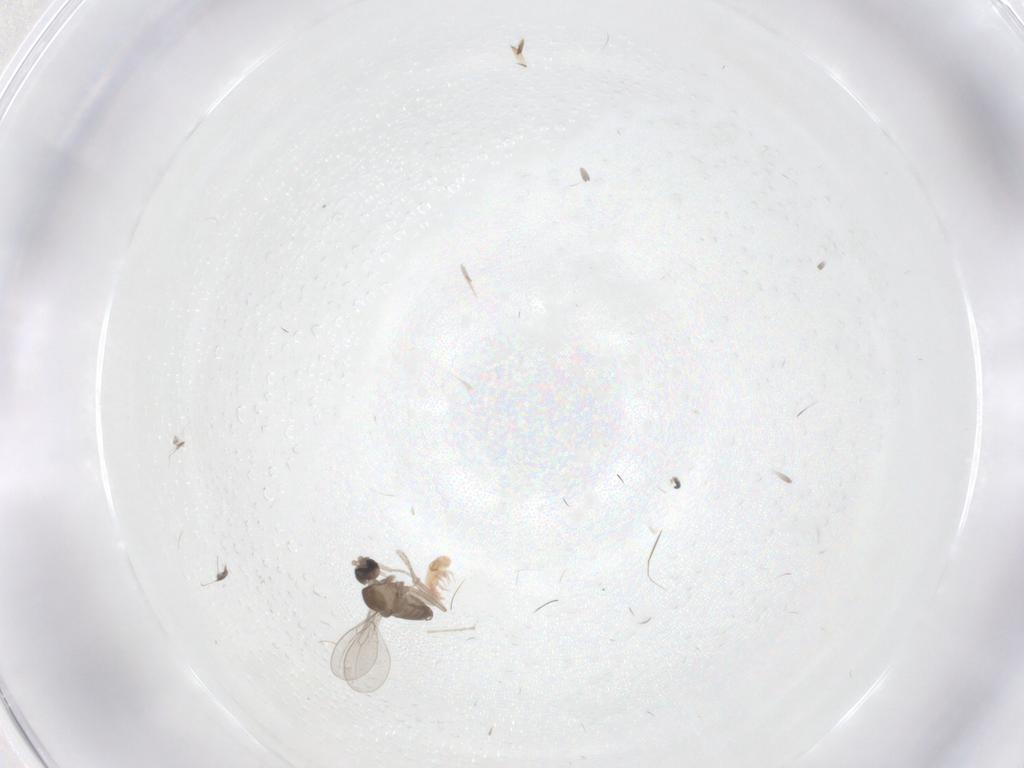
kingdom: Animalia
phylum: Arthropoda
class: Insecta
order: Diptera
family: Cecidomyiidae
